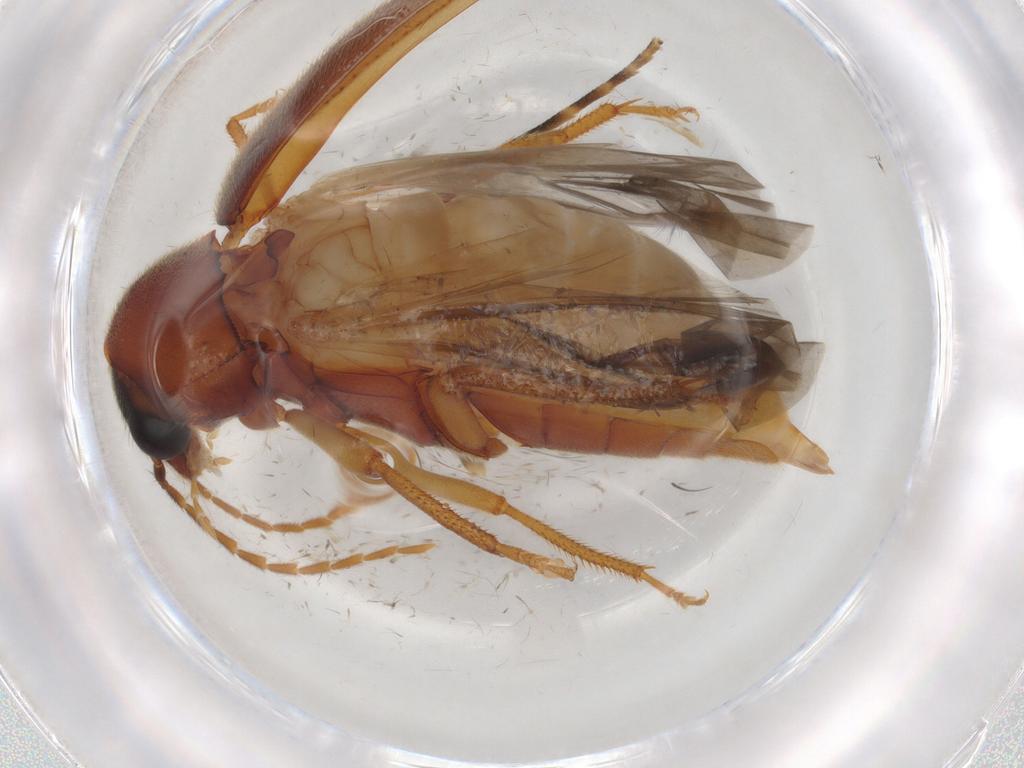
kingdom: Animalia
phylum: Arthropoda
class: Insecta
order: Coleoptera
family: Ptilodactylidae
